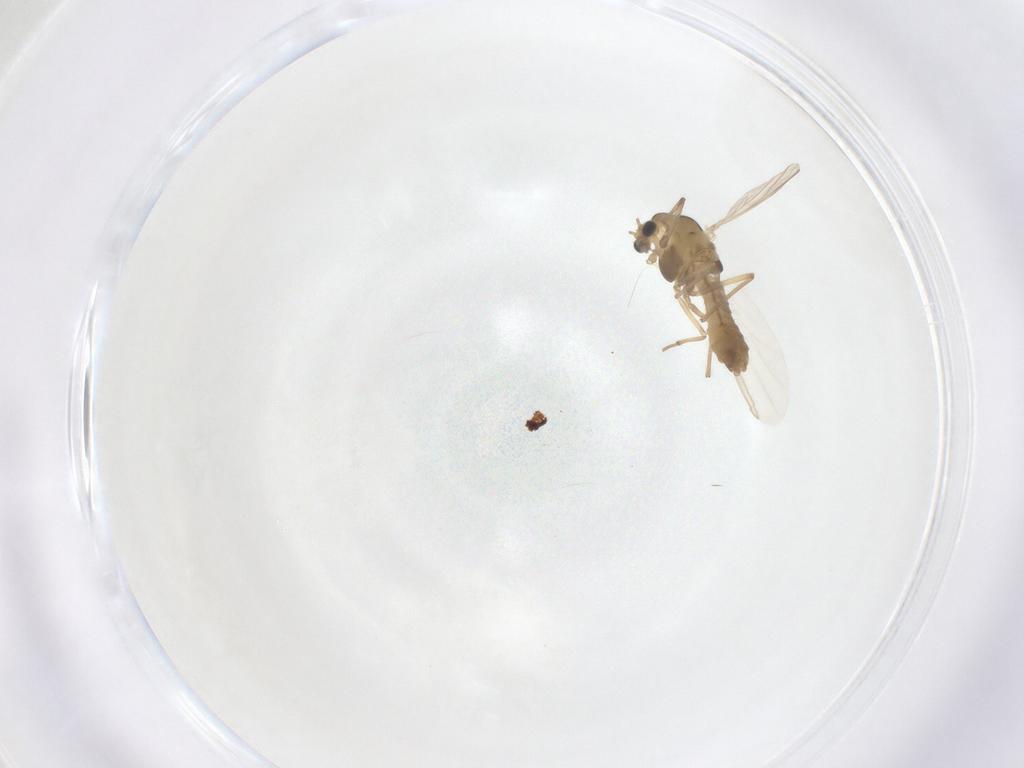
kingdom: Animalia
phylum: Arthropoda
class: Insecta
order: Diptera
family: Chironomidae
